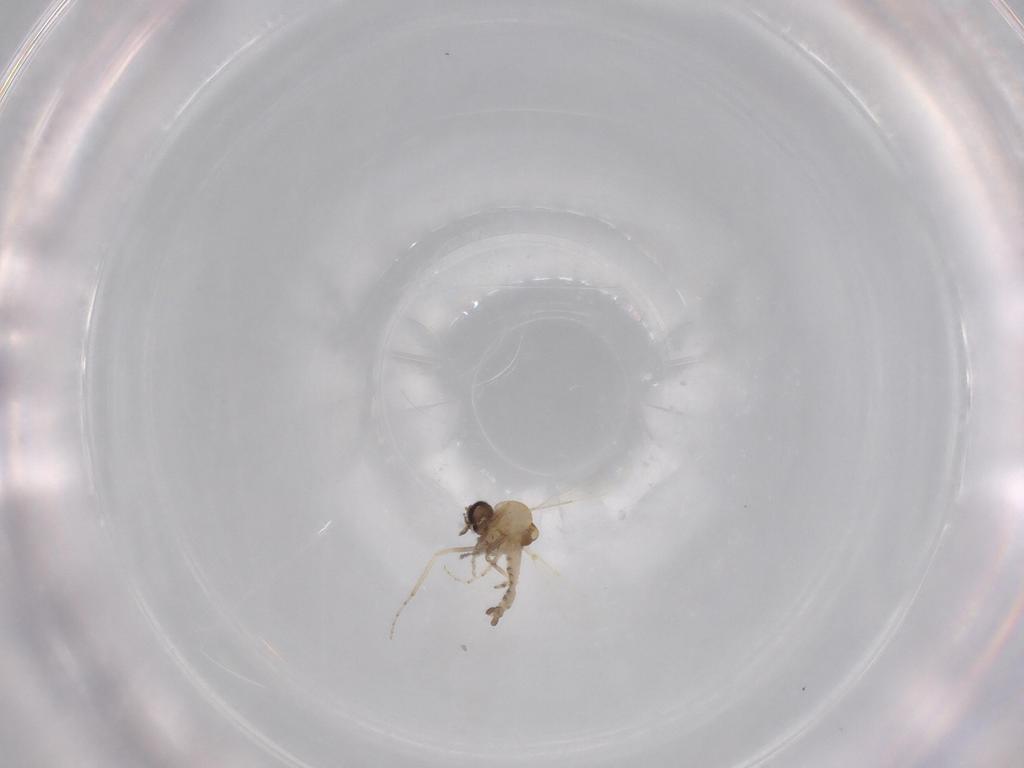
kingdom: Animalia
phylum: Arthropoda
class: Insecta
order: Diptera
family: Ceratopogonidae
